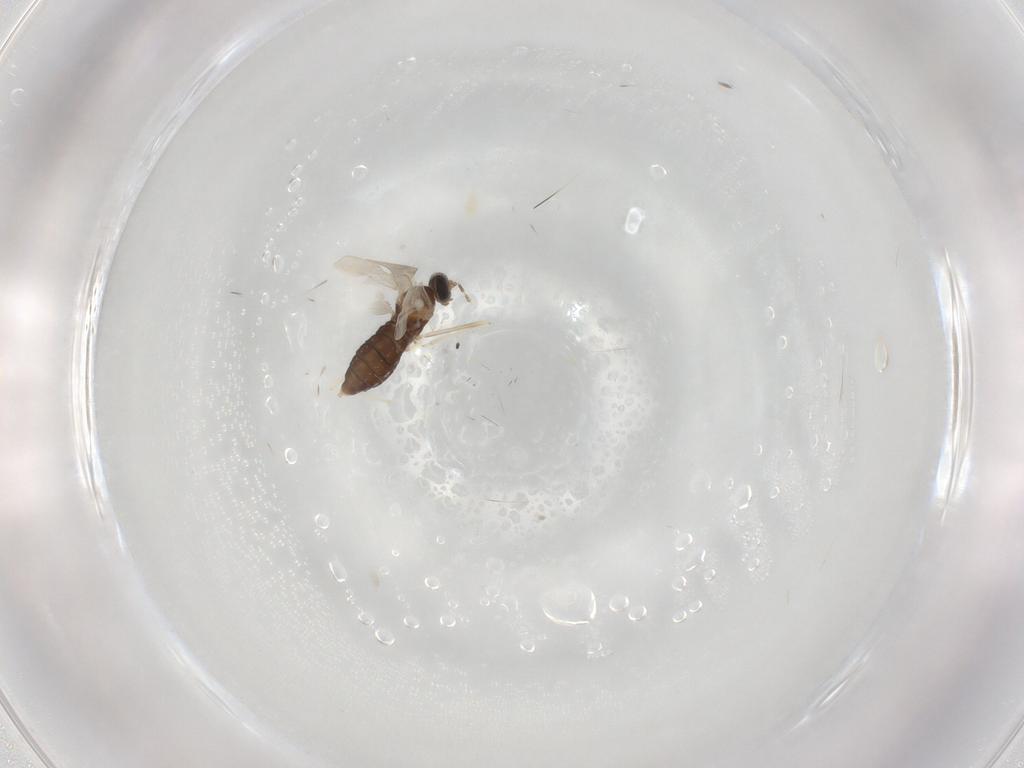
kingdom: Animalia
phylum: Arthropoda
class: Insecta
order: Diptera
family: Cecidomyiidae
